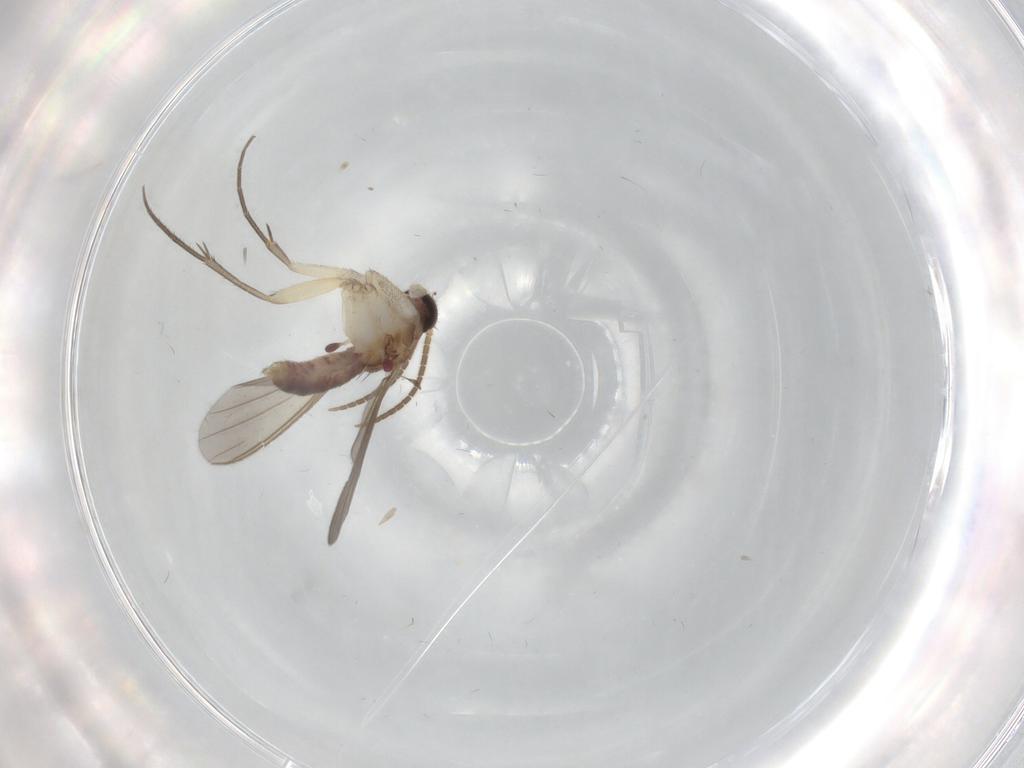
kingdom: Animalia
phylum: Arthropoda
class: Insecta
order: Diptera
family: Mycetophilidae
